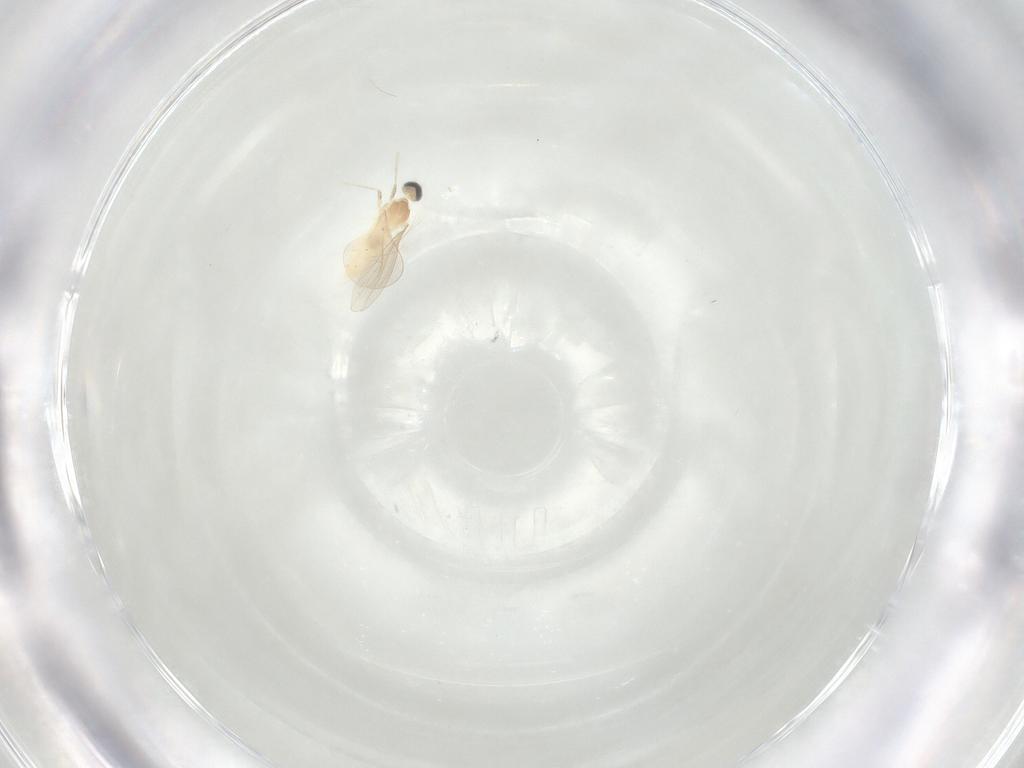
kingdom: Animalia
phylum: Arthropoda
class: Insecta
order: Diptera
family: Cecidomyiidae
